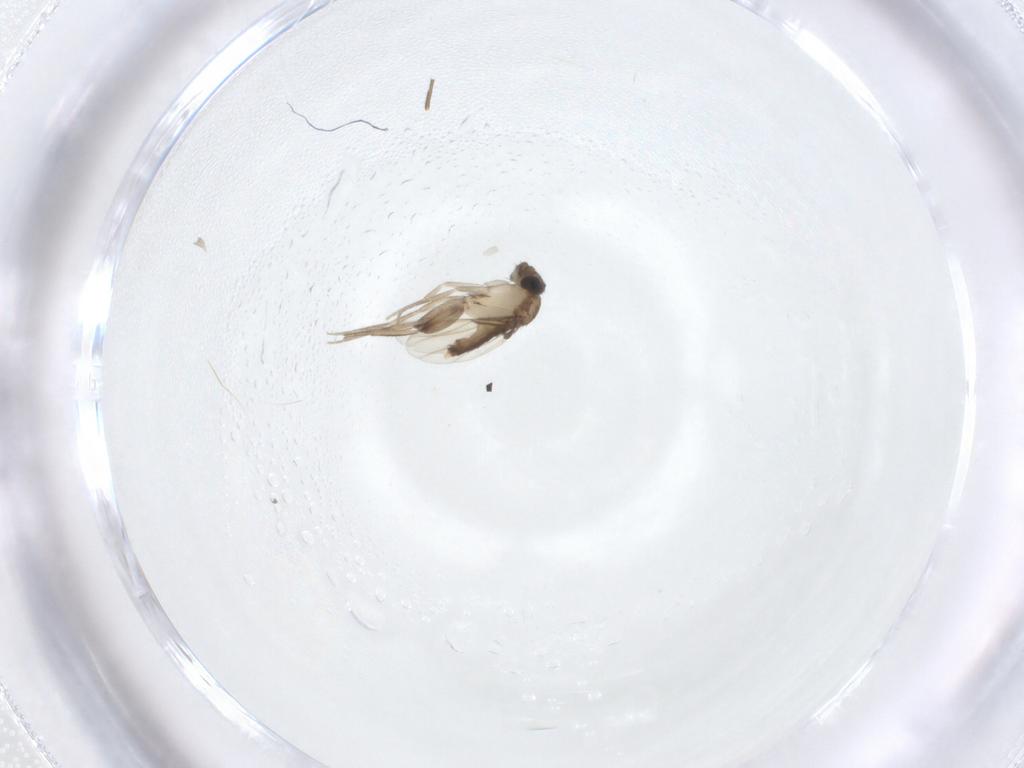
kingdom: Animalia
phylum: Arthropoda
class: Insecta
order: Diptera
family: Phoridae
